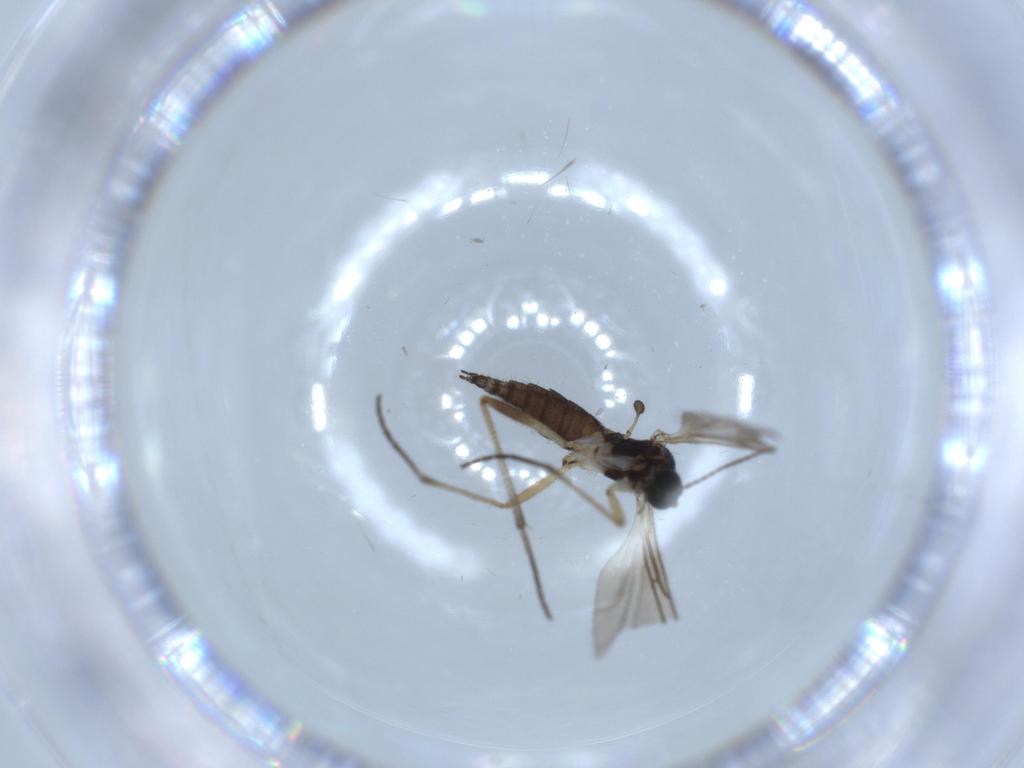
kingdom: Animalia
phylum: Arthropoda
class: Insecta
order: Diptera
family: Sciaridae
